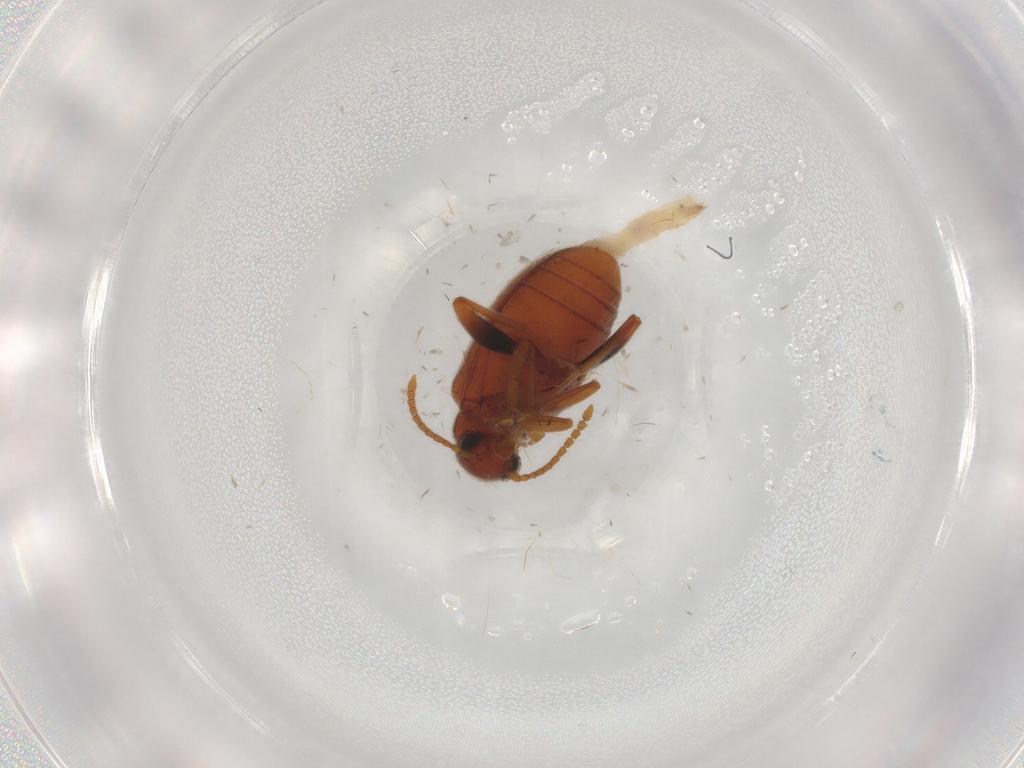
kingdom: Animalia
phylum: Arthropoda
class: Insecta
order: Coleoptera
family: Aderidae
